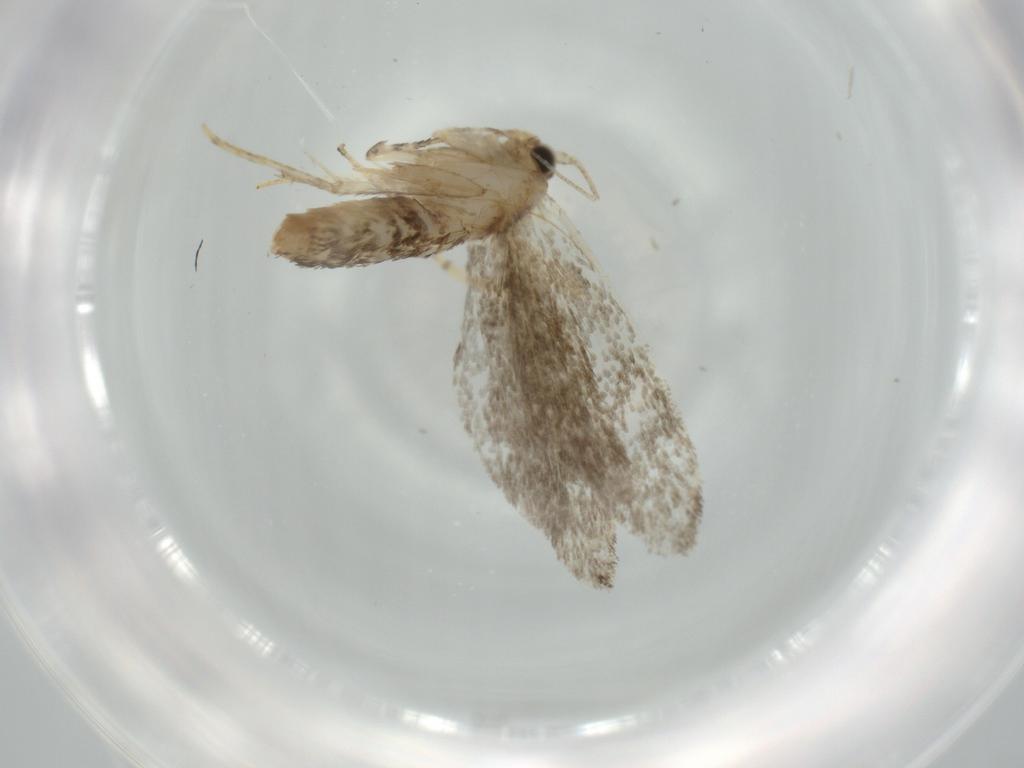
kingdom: Animalia
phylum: Arthropoda
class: Insecta
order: Lepidoptera
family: Tineidae
